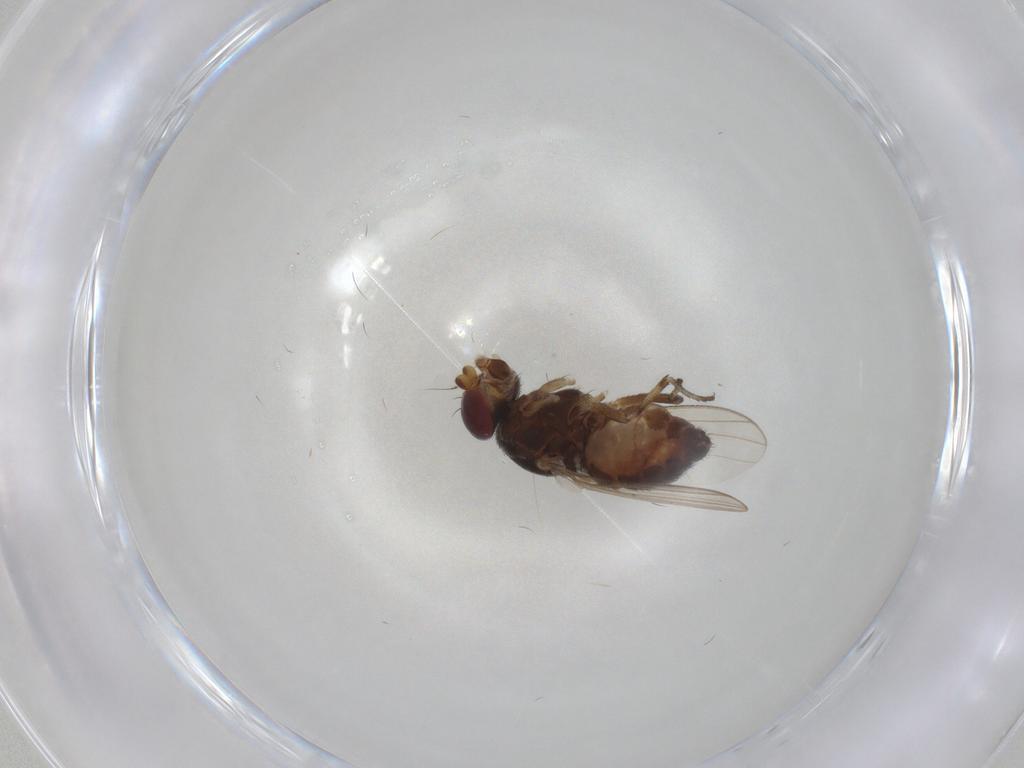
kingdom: Animalia
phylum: Arthropoda
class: Insecta
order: Diptera
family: Heleomyzidae
